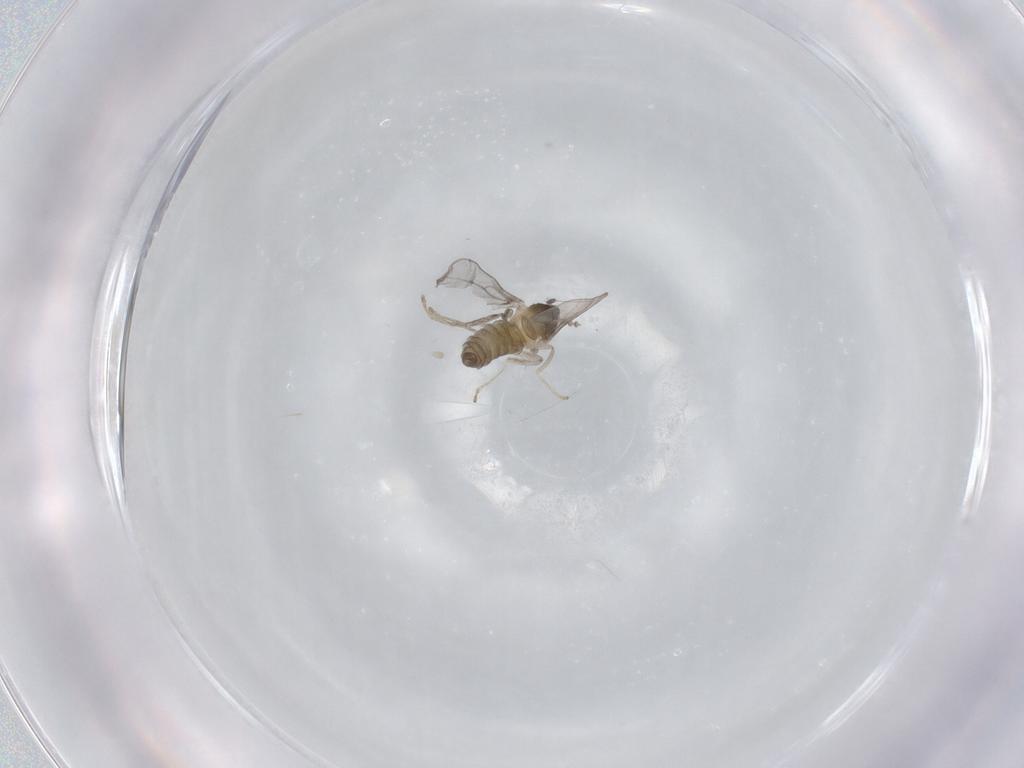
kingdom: Animalia
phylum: Arthropoda
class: Insecta
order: Diptera
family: Cecidomyiidae
